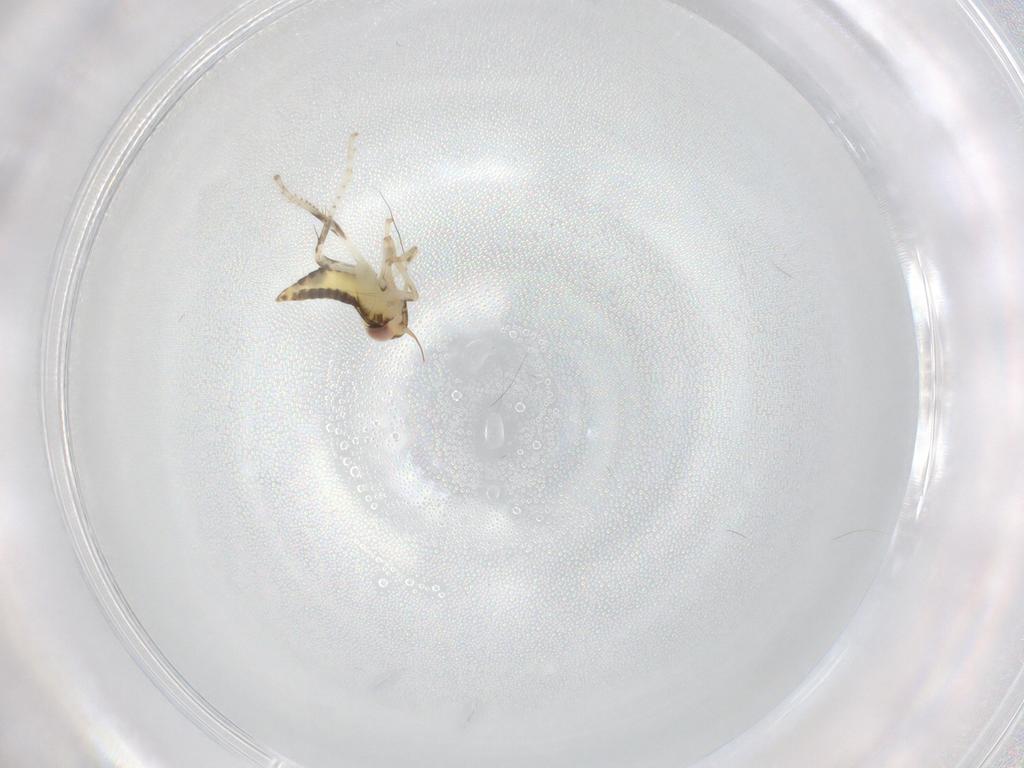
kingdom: Animalia
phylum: Arthropoda
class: Insecta
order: Hemiptera
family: Cicadellidae
